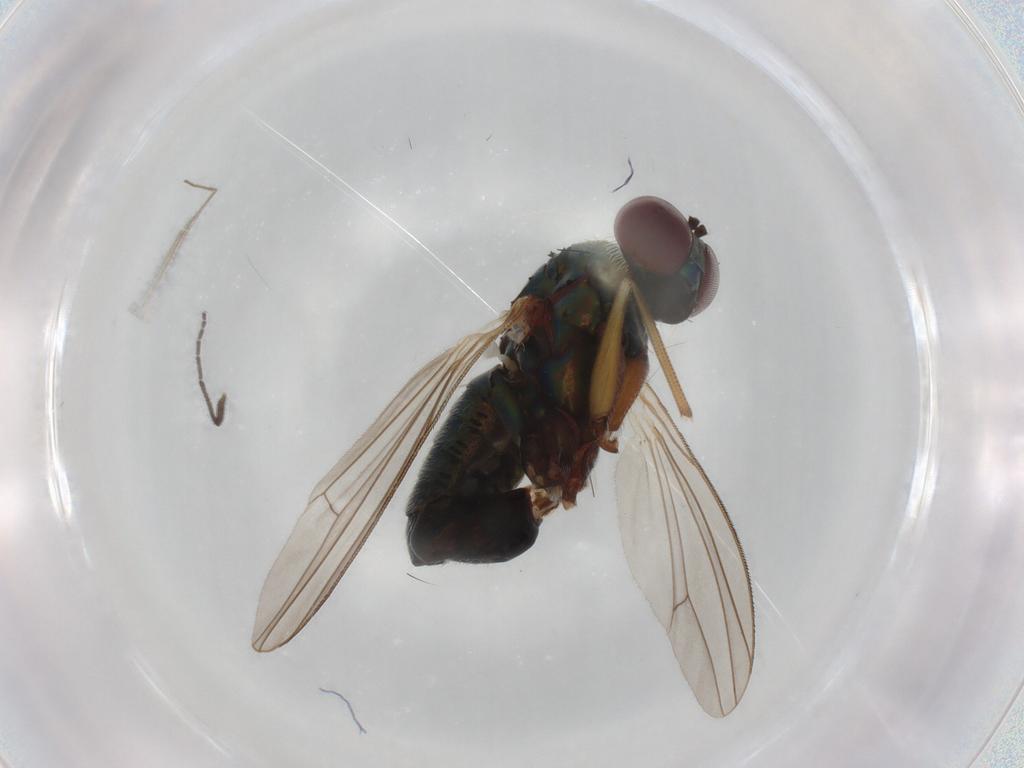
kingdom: Animalia
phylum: Arthropoda
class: Insecta
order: Diptera
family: Chironomidae
